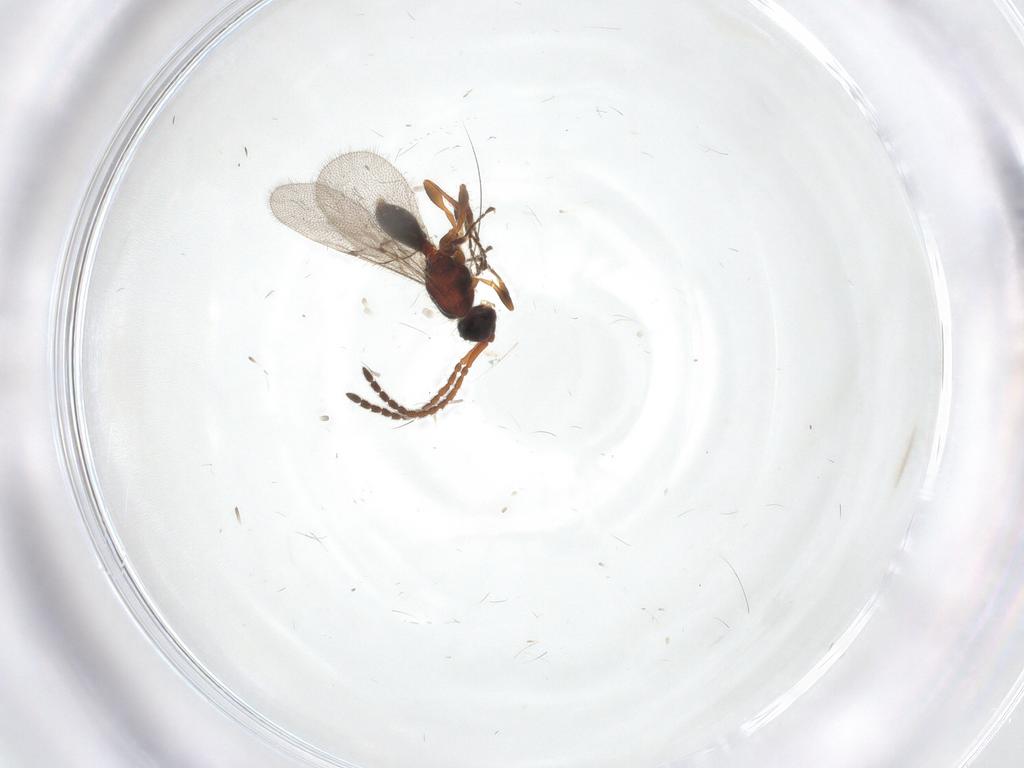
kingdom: Animalia
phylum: Arthropoda
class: Insecta
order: Hymenoptera
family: Diapriidae
